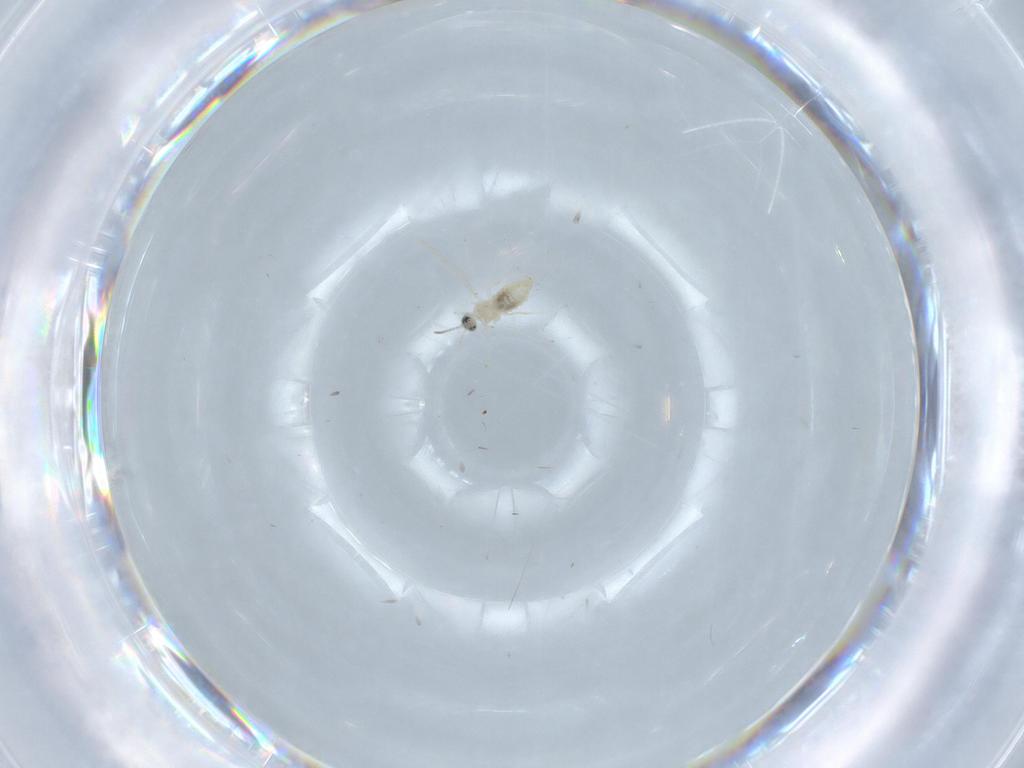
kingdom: Animalia
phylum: Arthropoda
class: Insecta
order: Diptera
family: Cecidomyiidae
